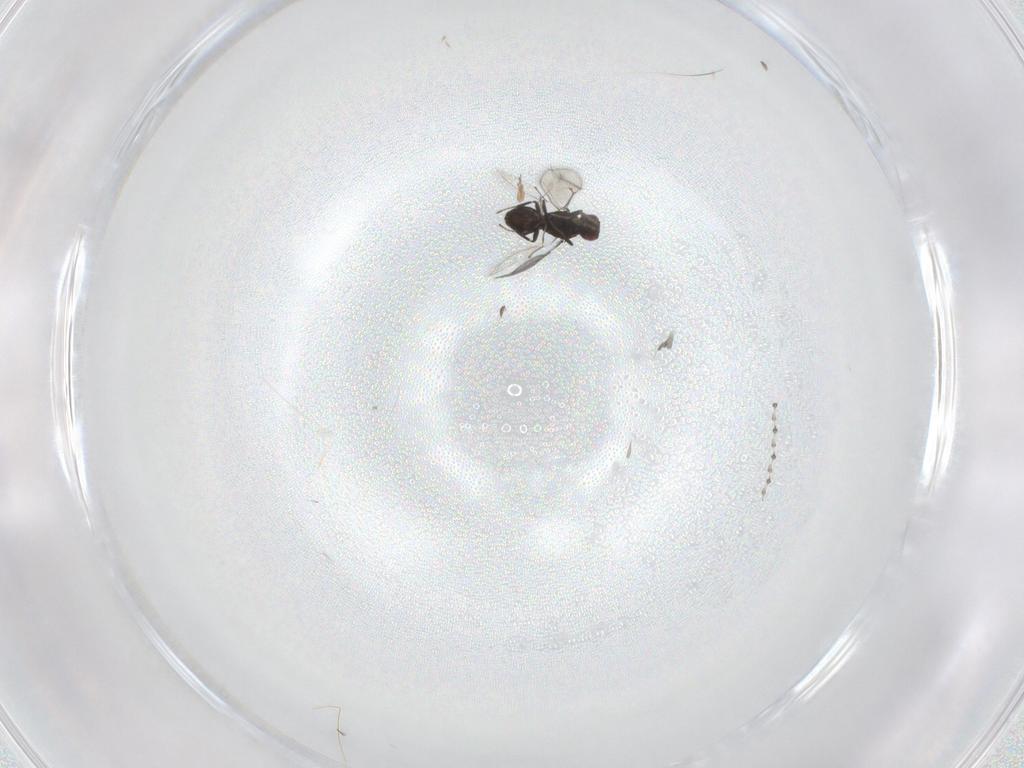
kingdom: Animalia
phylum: Arthropoda
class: Insecta
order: Hymenoptera
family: Eulophidae
